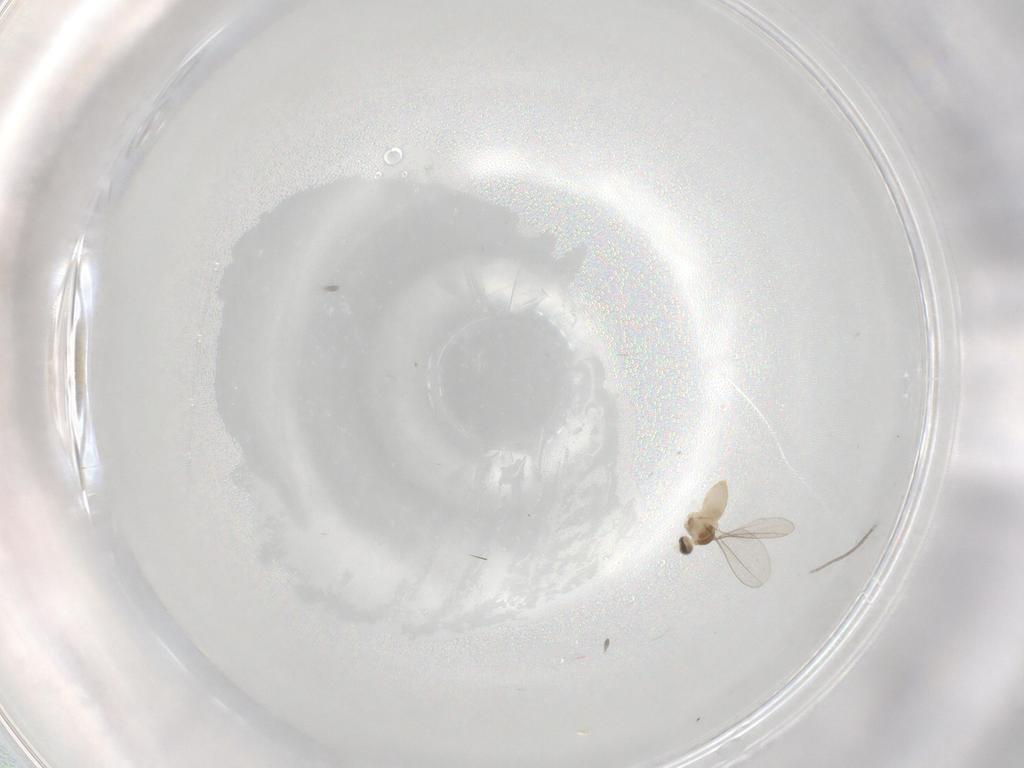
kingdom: Animalia
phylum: Arthropoda
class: Insecta
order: Diptera
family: Cecidomyiidae
